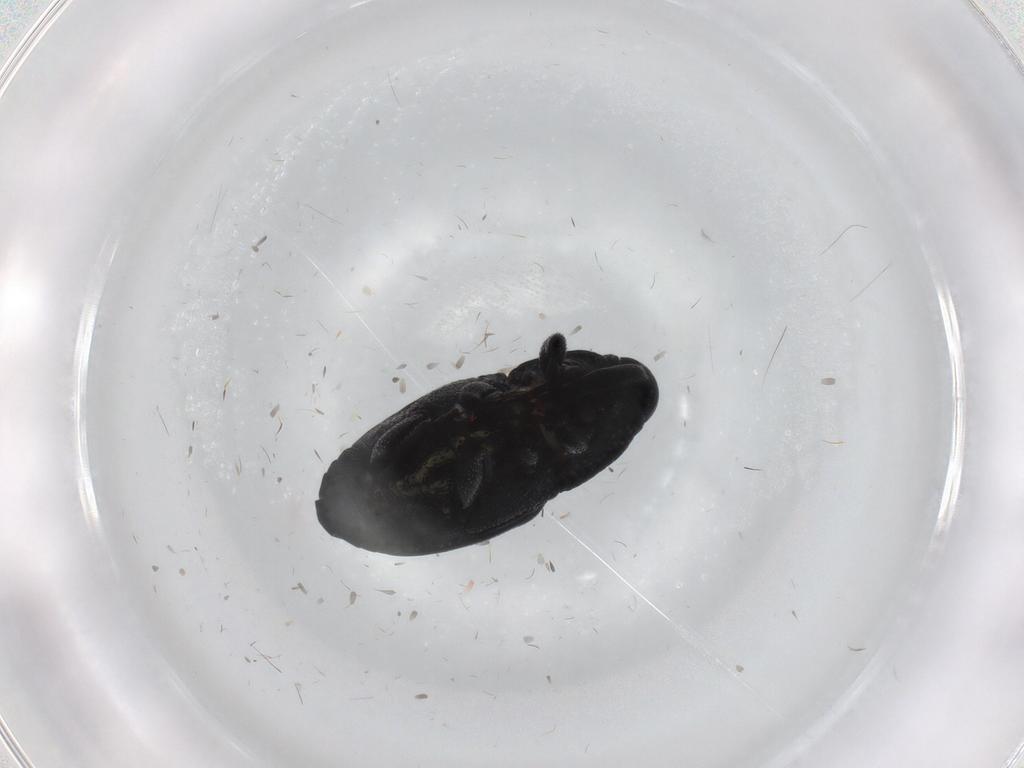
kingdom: Animalia
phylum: Arthropoda
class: Insecta
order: Coleoptera
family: Curculionidae
